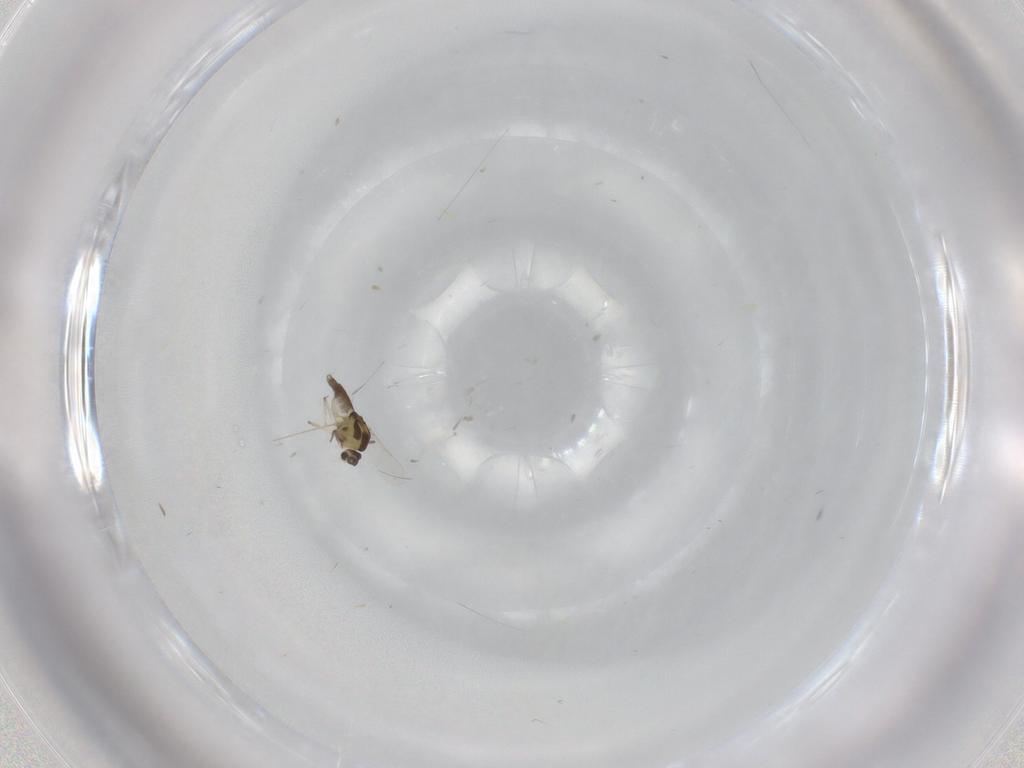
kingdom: Animalia
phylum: Arthropoda
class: Insecta
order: Diptera
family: Chironomidae
